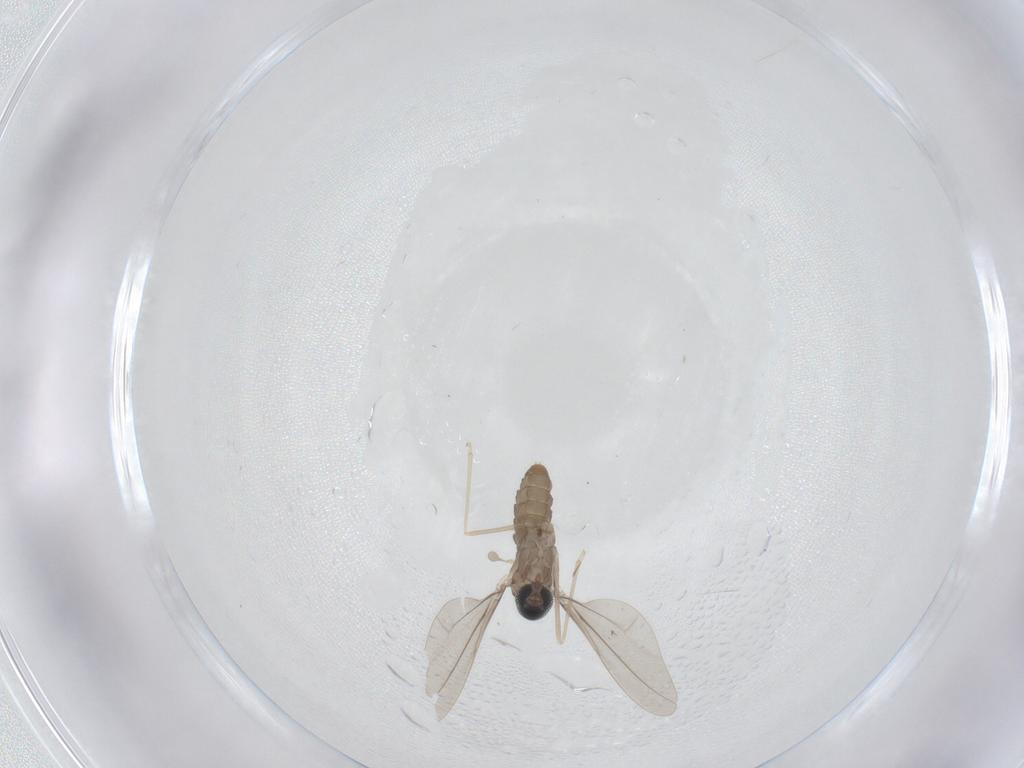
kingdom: Animalia
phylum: Arthropoda
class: Insecta
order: Diptera
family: Cecidomyiidae
